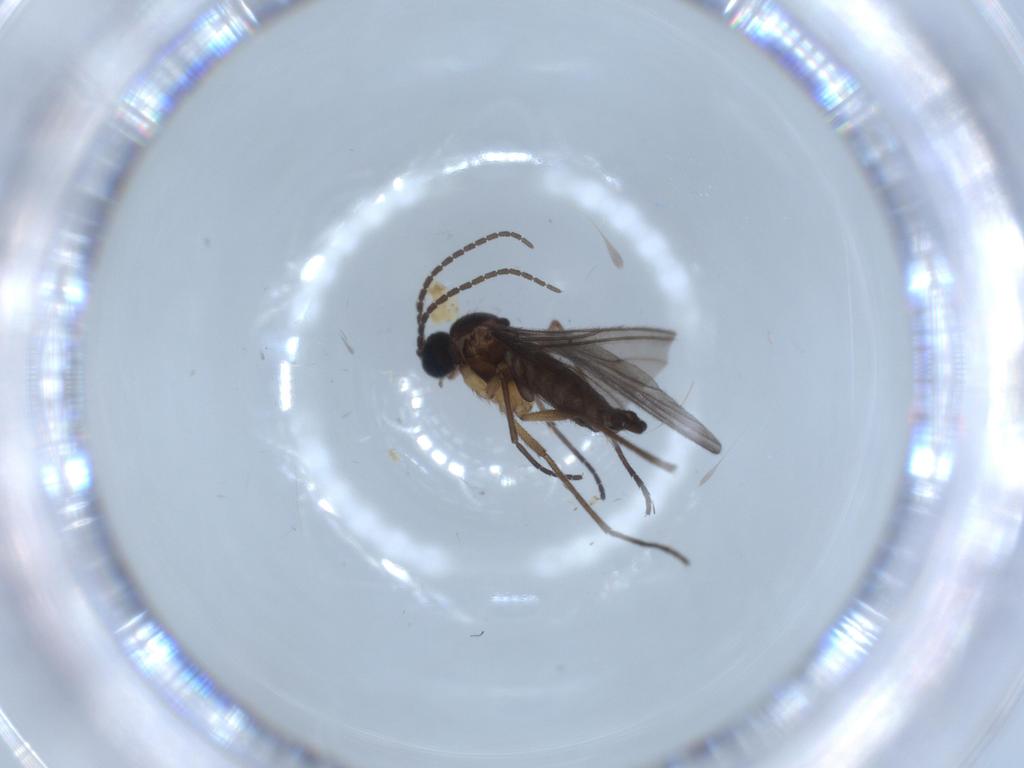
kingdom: Animalia
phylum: Arthropoda
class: Insecta
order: Diptera
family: Sciaridae
